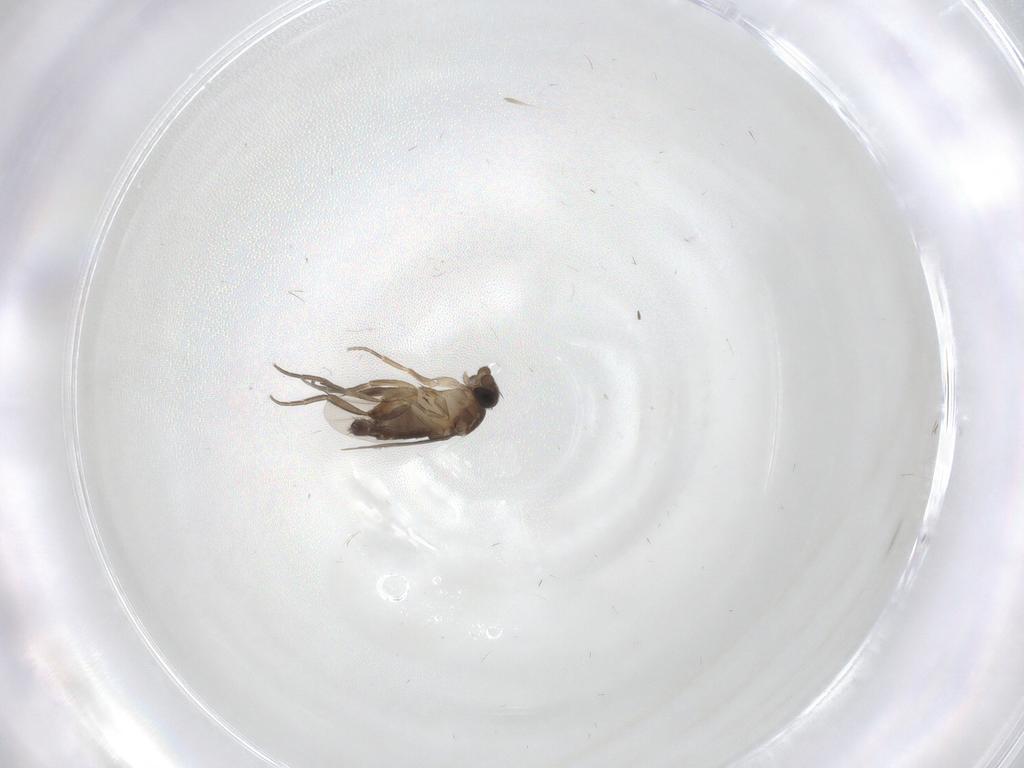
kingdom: Animalia
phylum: Arthropoda
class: Insecta
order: Diptera
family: Phoridae
